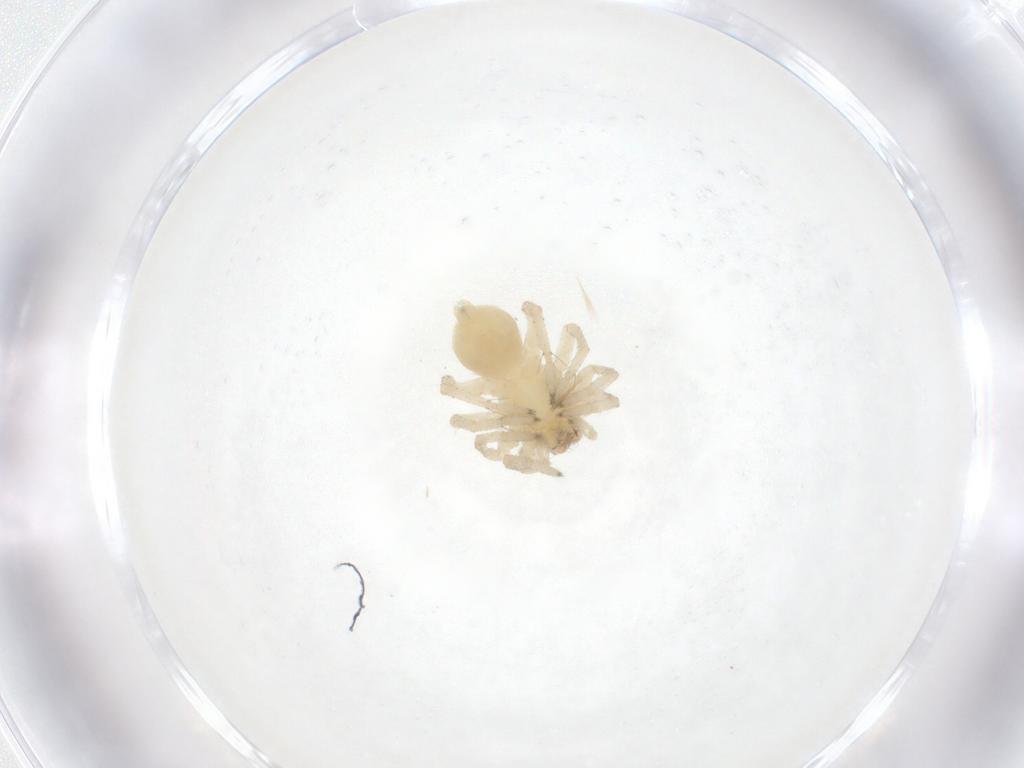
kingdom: Animalia
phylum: Arthropoda
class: Arachnida
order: Araneae
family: Clubionidae
